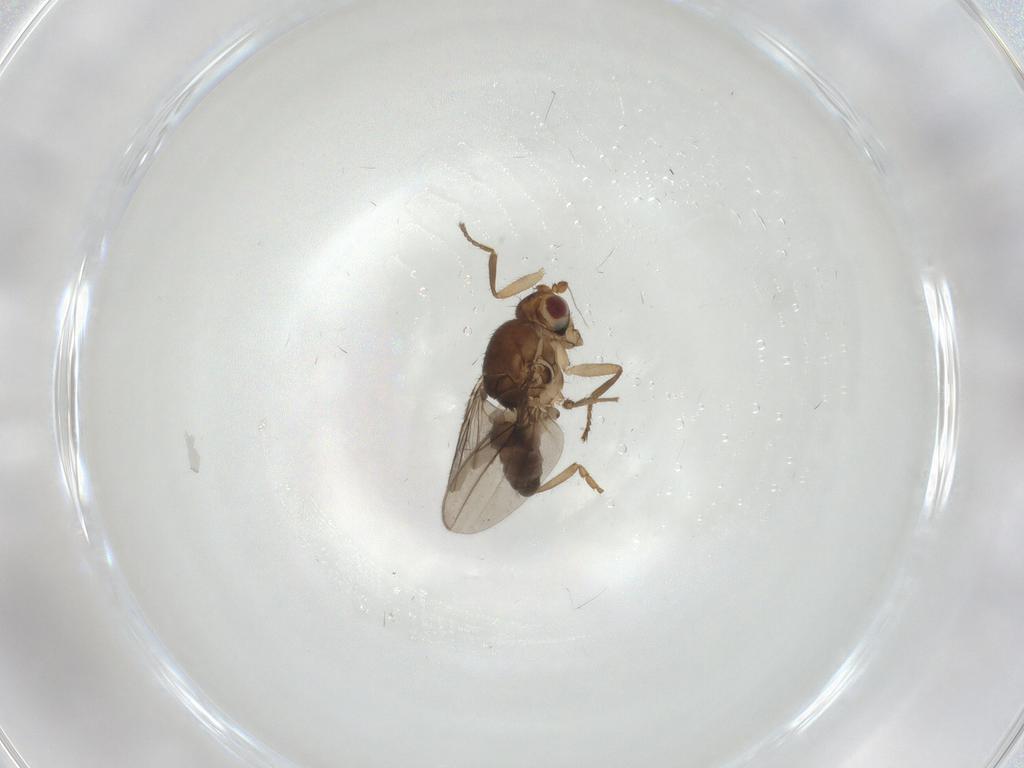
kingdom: Animalia
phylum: Arthropoda
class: Insecta
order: Diptera
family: Sphaeroceridae
